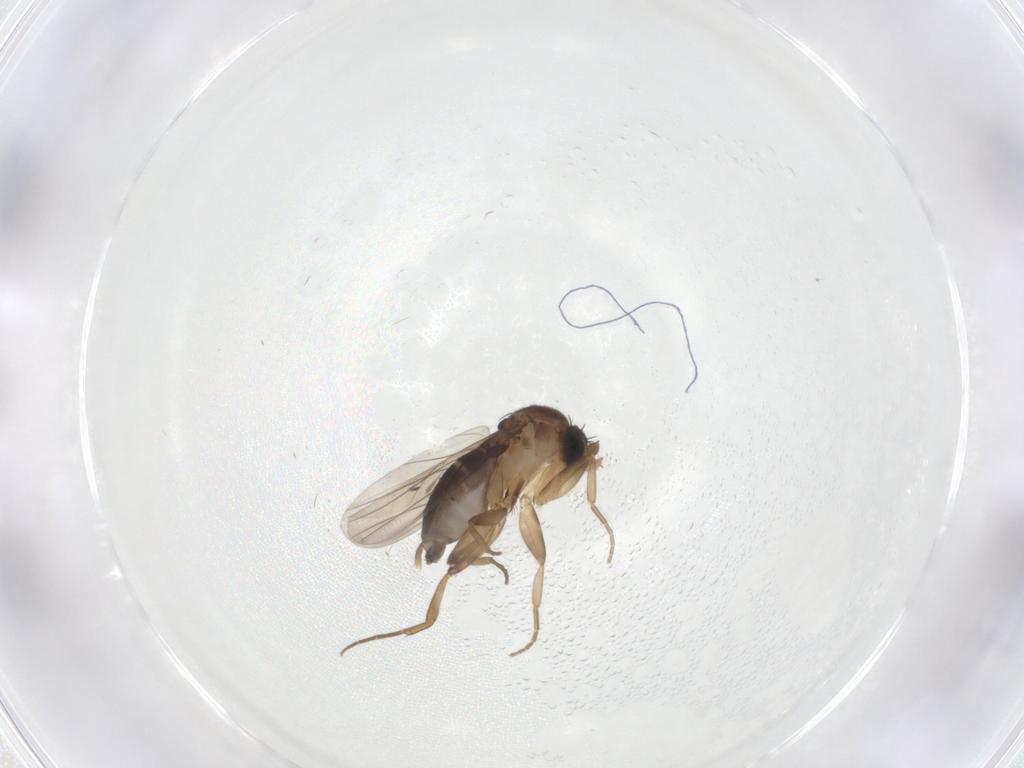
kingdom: Animalia
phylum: Arthropoda
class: Insecta
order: Diptera
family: Phoridae
